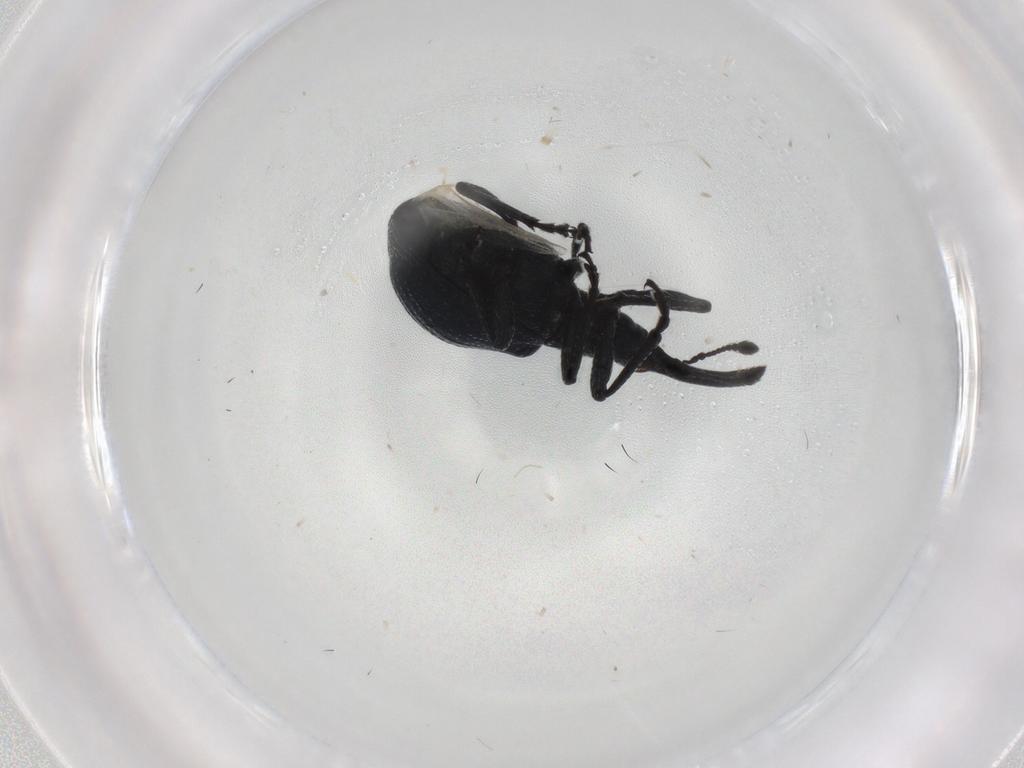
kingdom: Animalia
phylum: Arthropoda
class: Insecta
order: Coleoptera
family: Brentidae
